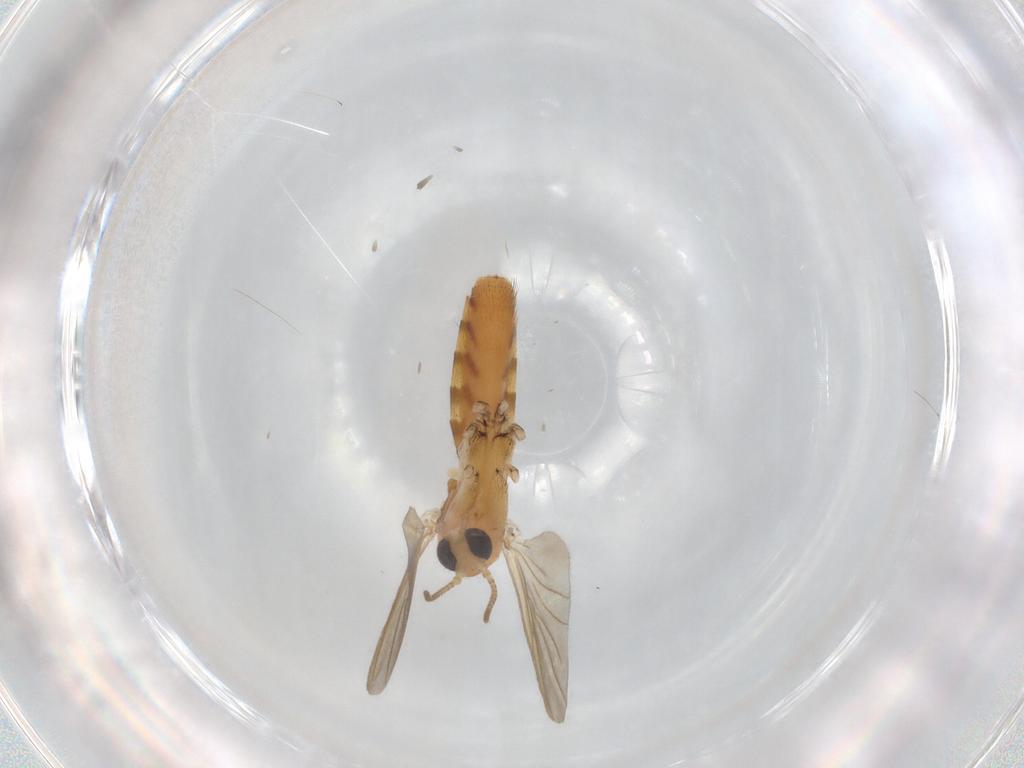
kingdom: Animalia
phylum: Arthropoda
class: Insecta
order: Diptera
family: Mycetophilidae
